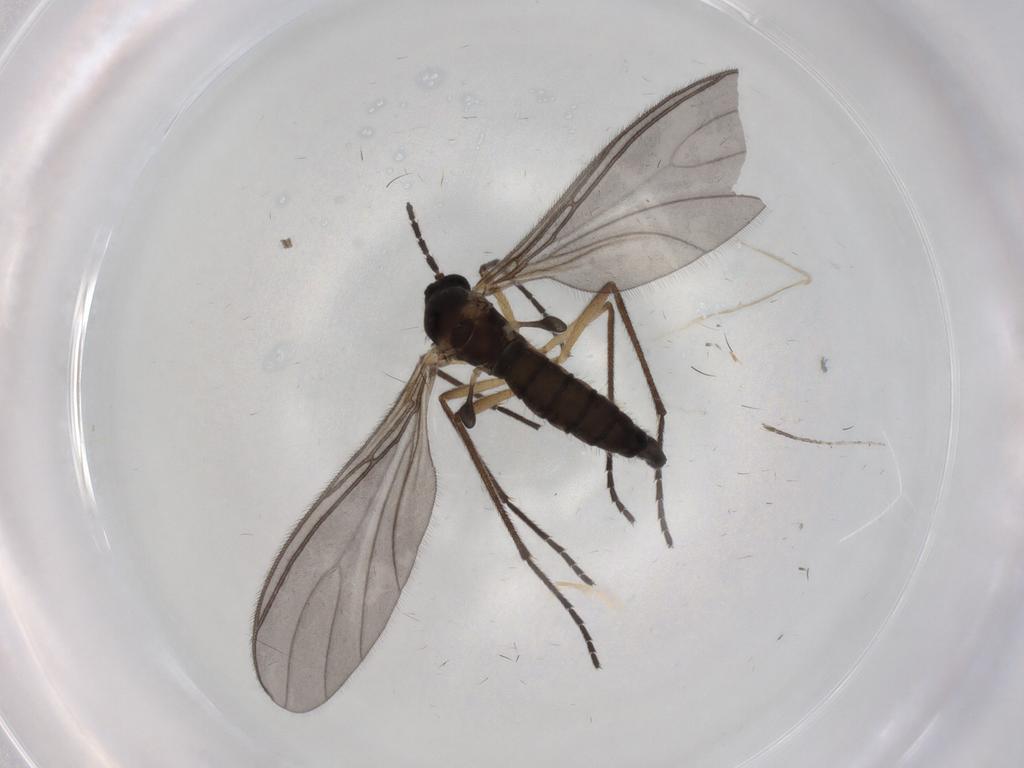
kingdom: Animalia
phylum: Arthropoda
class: Insecta
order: Diptera
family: Sciaridae
